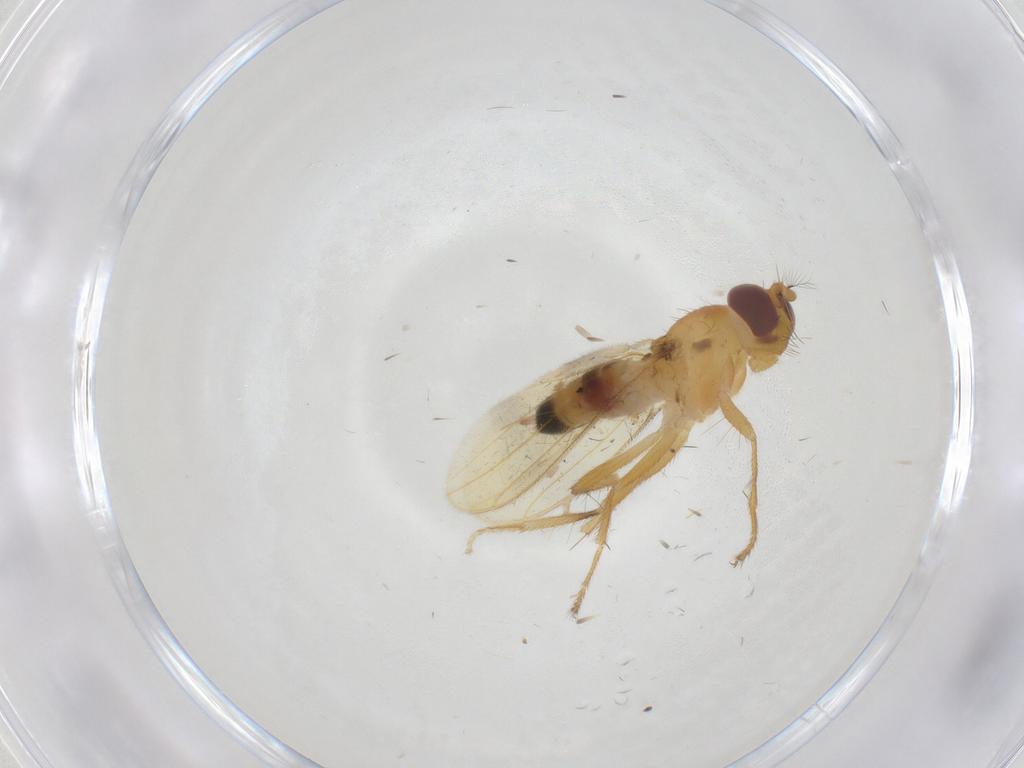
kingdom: Animalia
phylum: Arthropoda
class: Insecta
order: Diptera
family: Periscelididae
